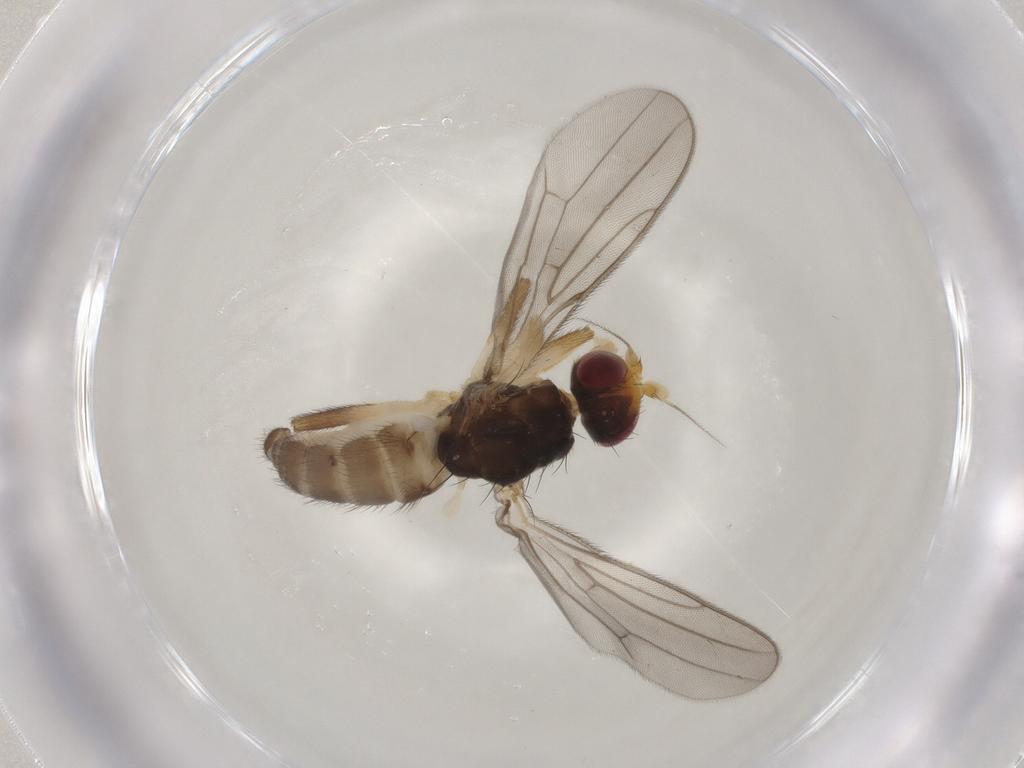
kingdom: Animalia
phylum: Arthropoda
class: Insecta
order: Diptera
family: Chloropidae
